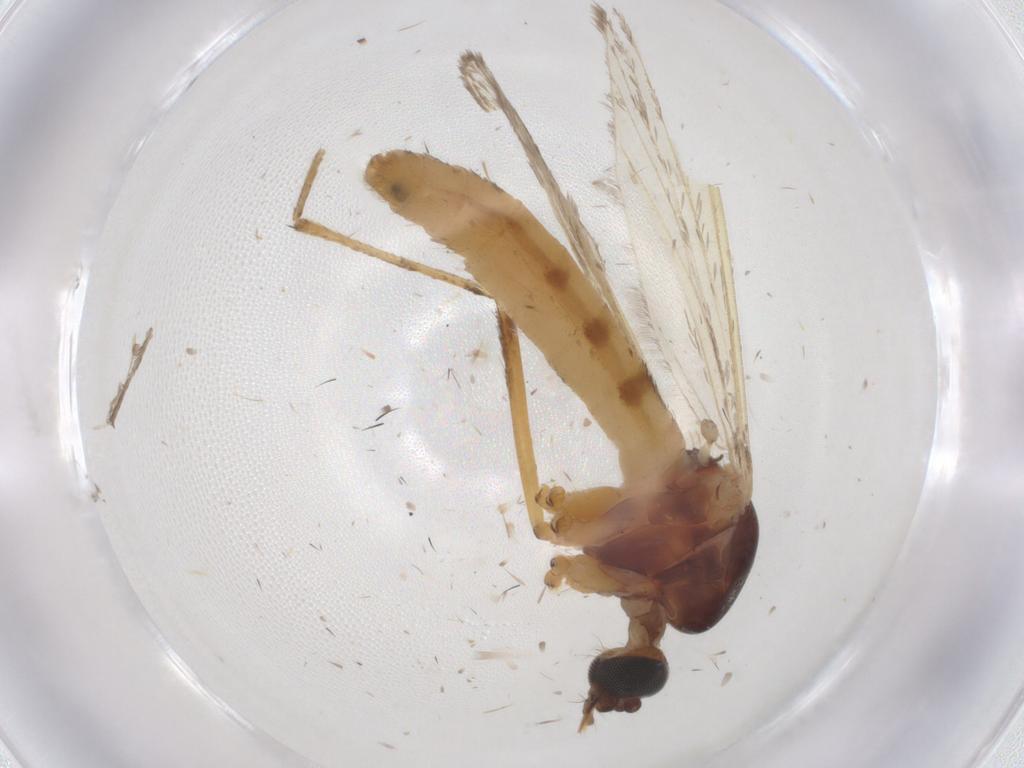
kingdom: Animalia
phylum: Arthropoda
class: Insecta
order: Diptera
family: Culicidae
